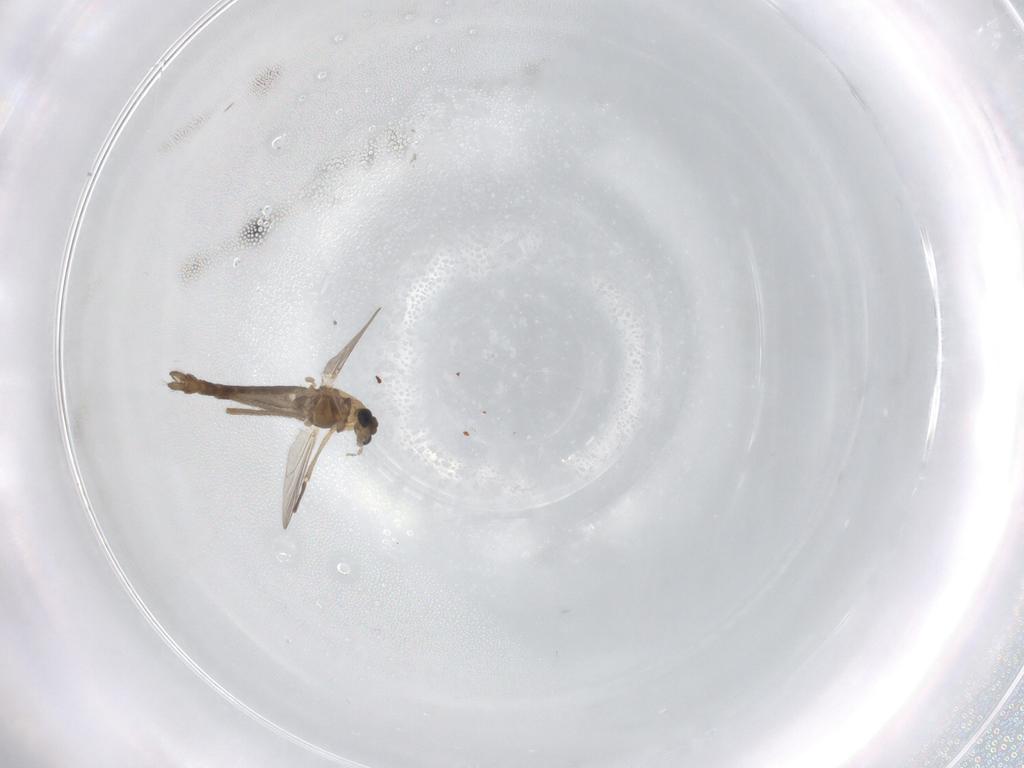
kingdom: Animalia
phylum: Arthropoda
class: Insecta
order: Diptera
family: Chironomidae
